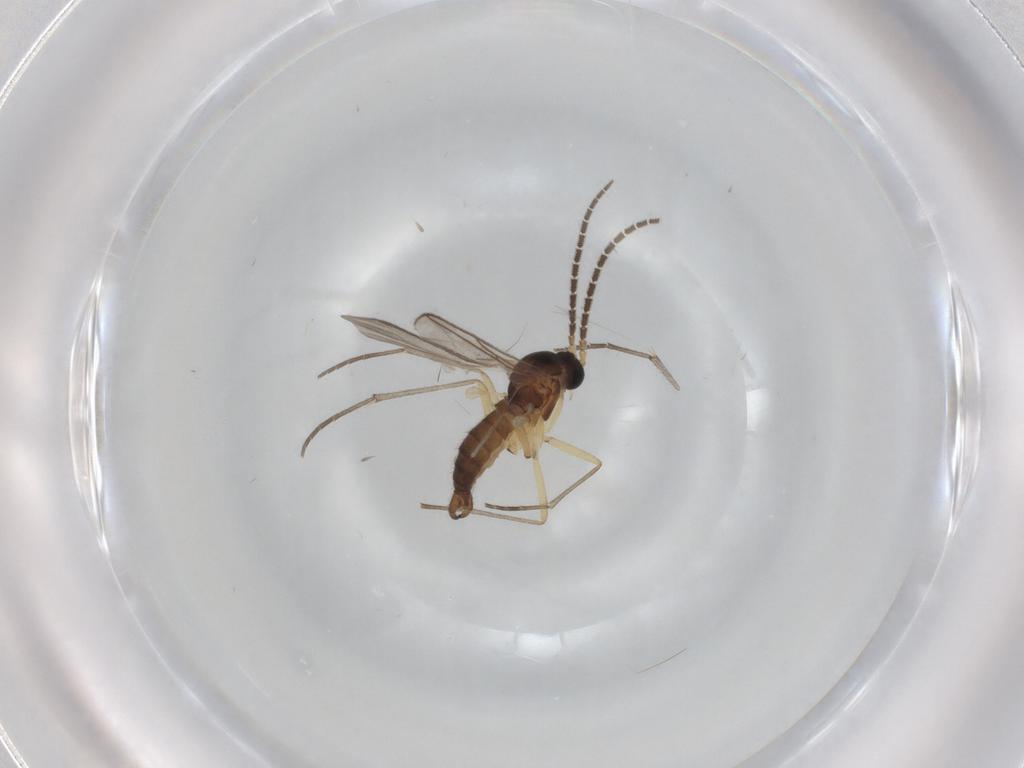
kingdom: Animalia
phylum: Arthropoda
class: Insecta
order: Diptera
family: Sciaridae
